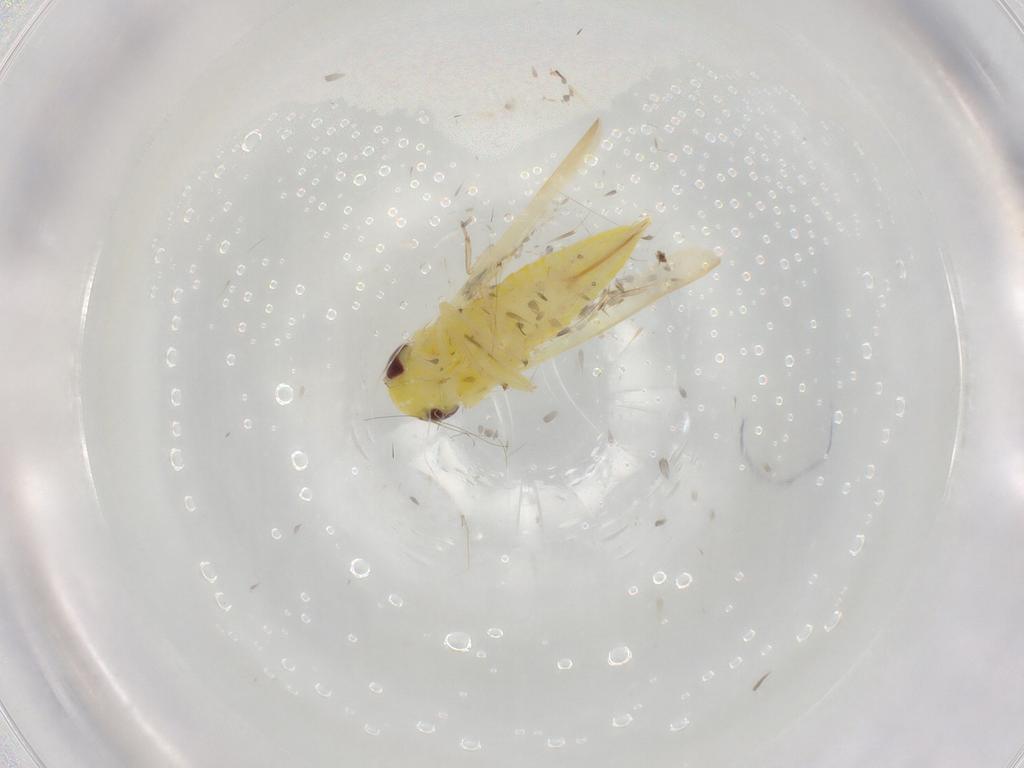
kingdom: Animalia
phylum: Arthropoda
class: Insecta
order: Hemiptera
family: Cicadellidae
